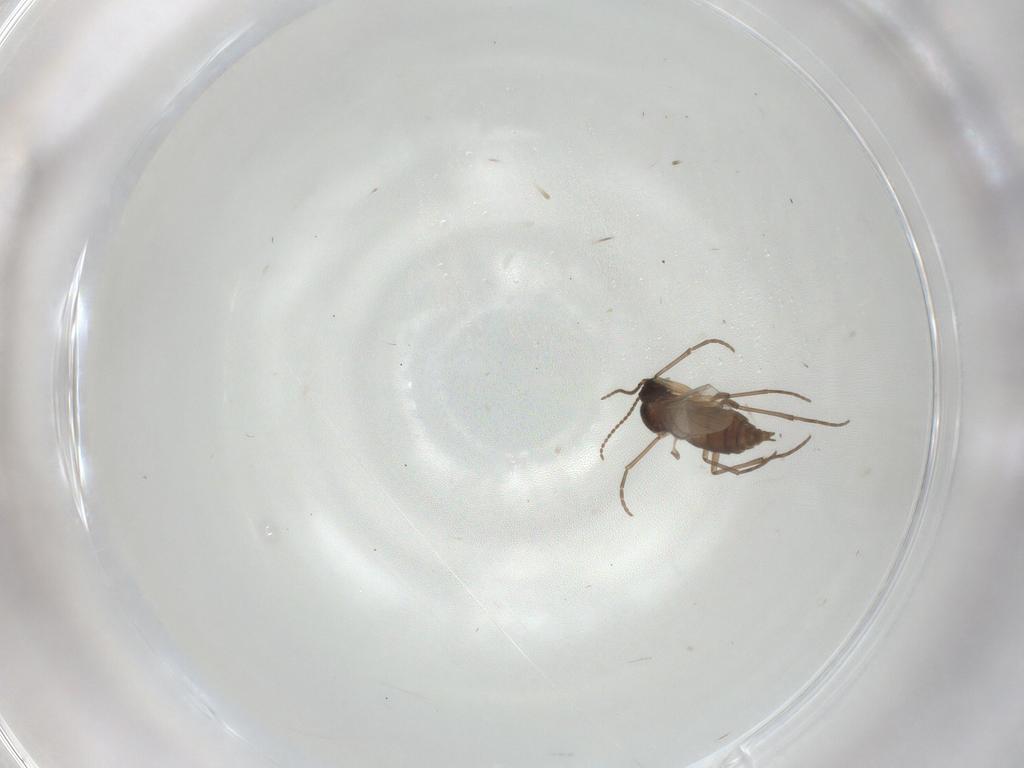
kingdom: Animalia
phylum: Arthropoda
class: Insecta
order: Diptera
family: Sciaridae
